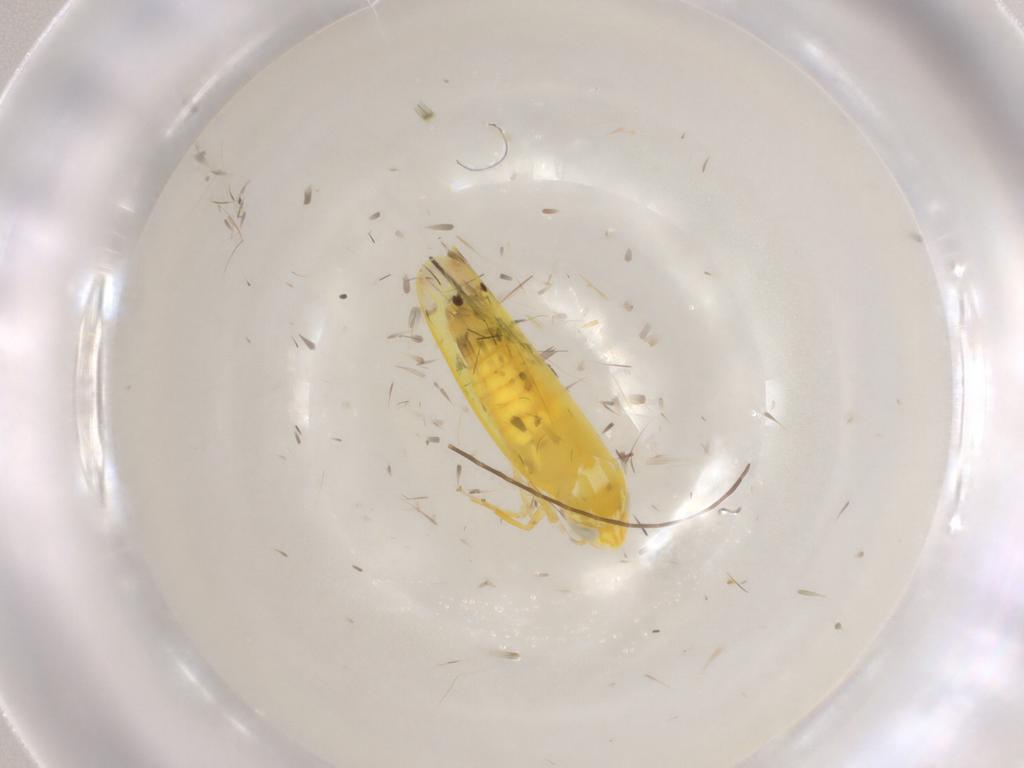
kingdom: Animalia
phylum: Arthropoda
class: Insecta
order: Hemiptera
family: Cicadellidae
